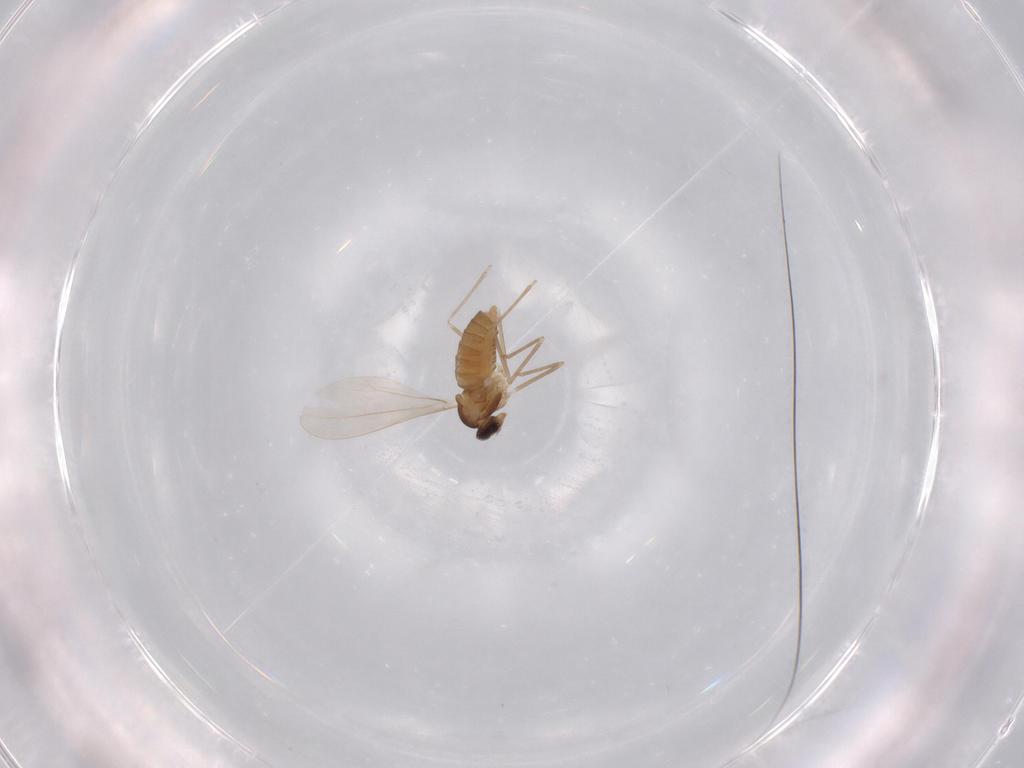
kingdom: Animalia
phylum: Arthropoda
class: Insecta
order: Diptera
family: Cecidomyiidae
